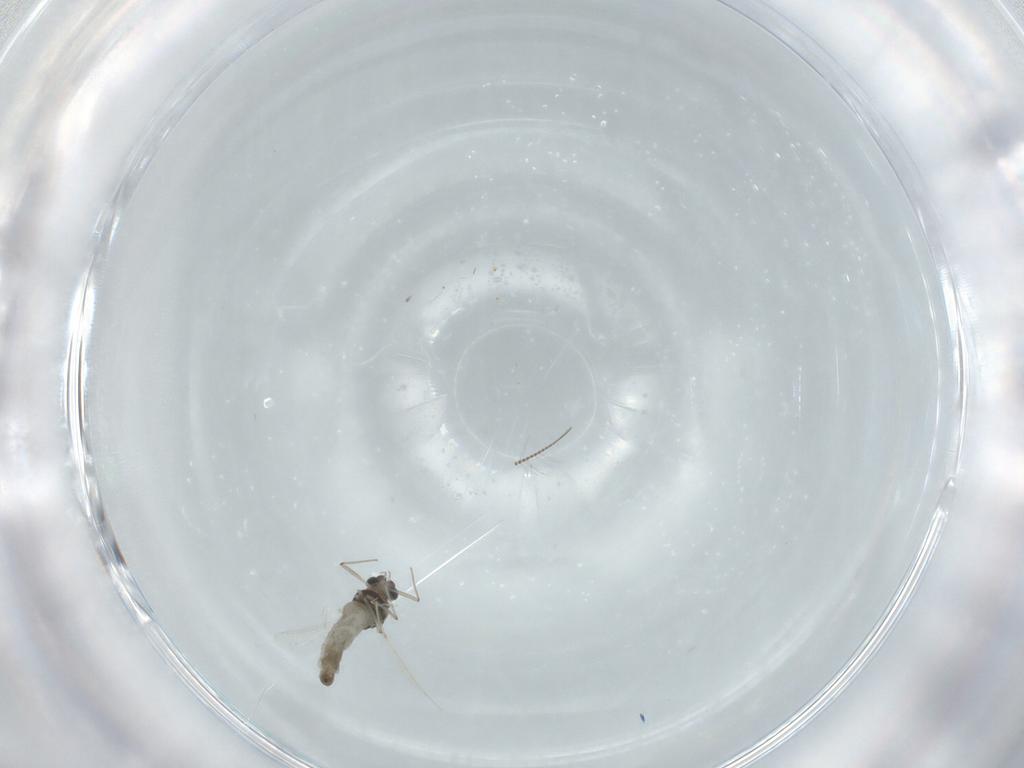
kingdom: Animalia
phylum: Arthropoda
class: Insecta
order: Diptera
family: Chironomidae
